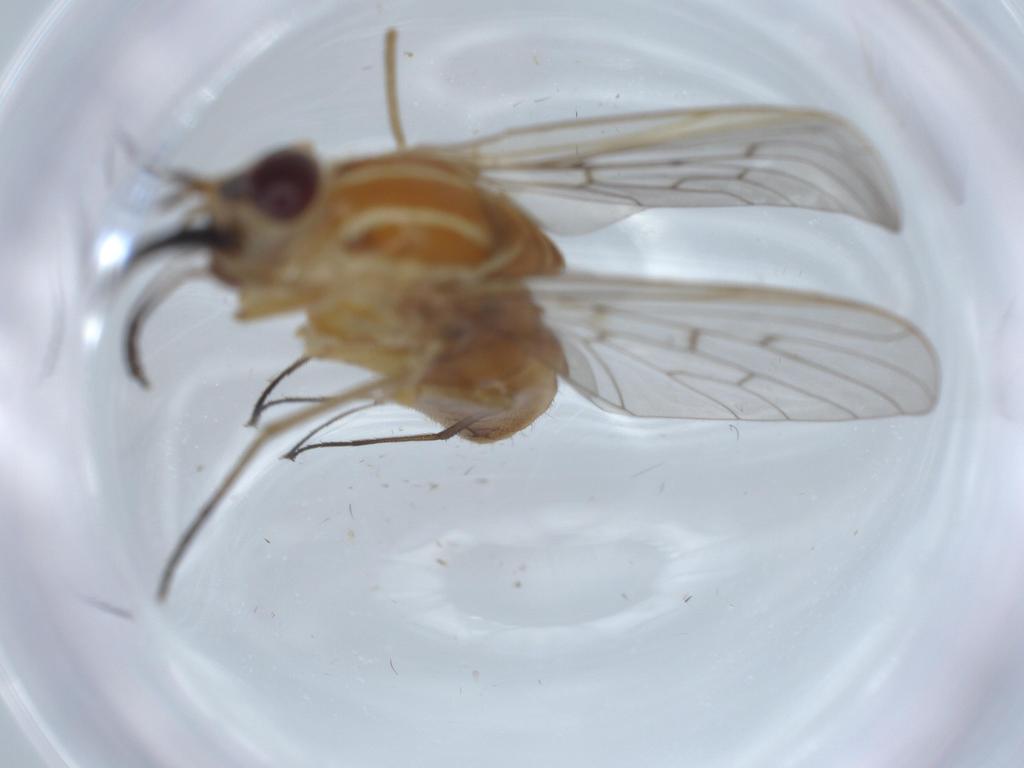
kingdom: Animalia
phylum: Arthropoda
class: Insecta
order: Diptera
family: Bombyliidae
